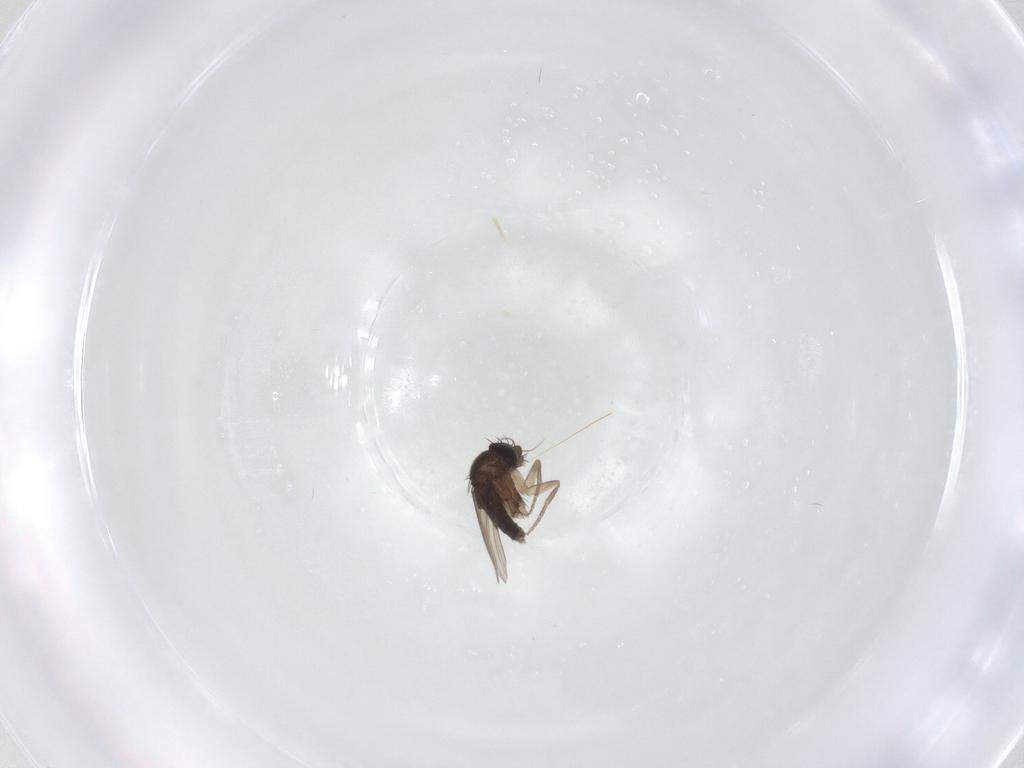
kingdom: Animalia
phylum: Arthropoda
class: Insecta
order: Diptera
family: Phoridae
